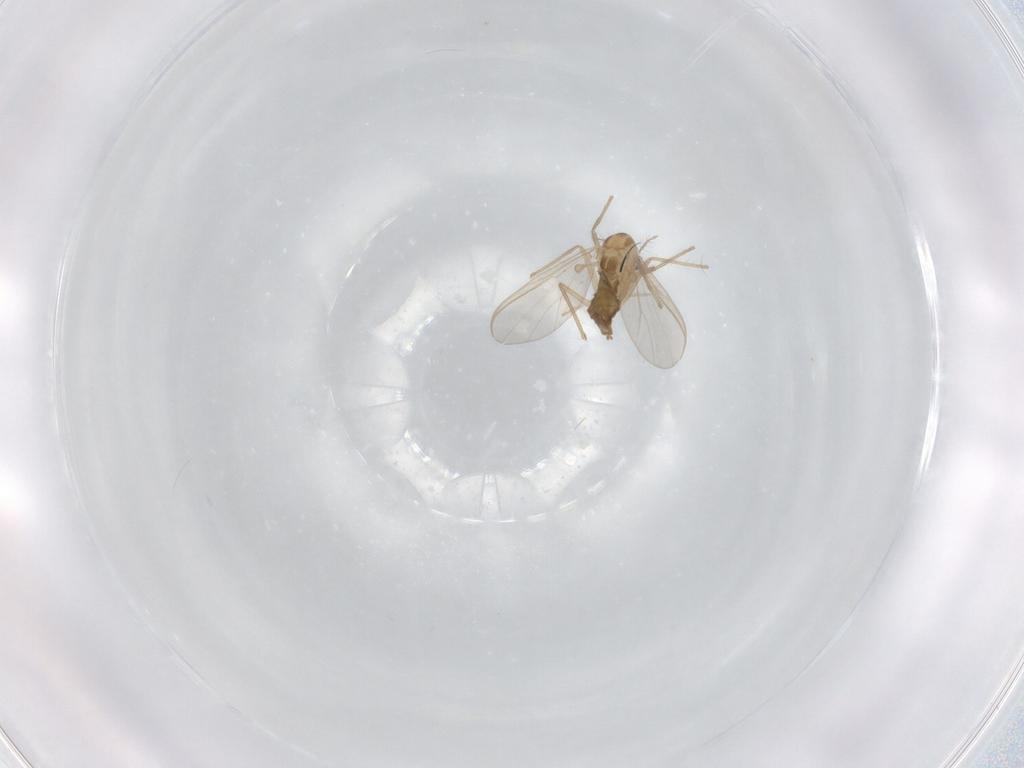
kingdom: Animalia
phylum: Arthropoda
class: Insecta
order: Diptera
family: Chironomidae
